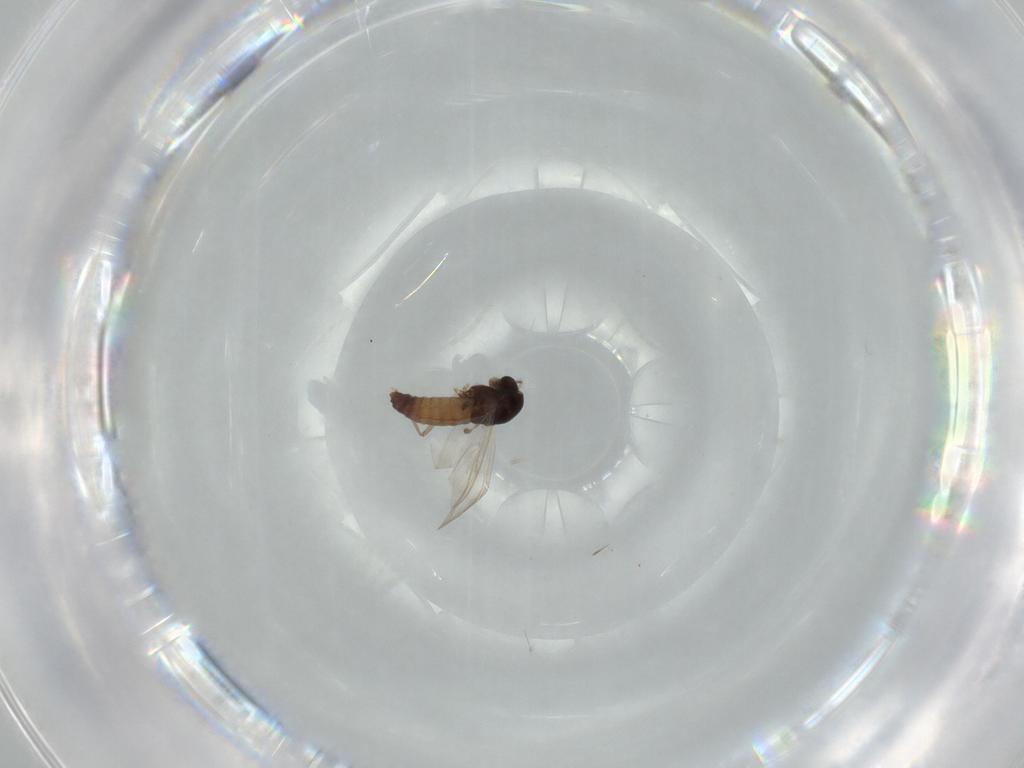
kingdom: Animalia
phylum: Arthropoda
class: Insecta
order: Diptera
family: Chironomidae
